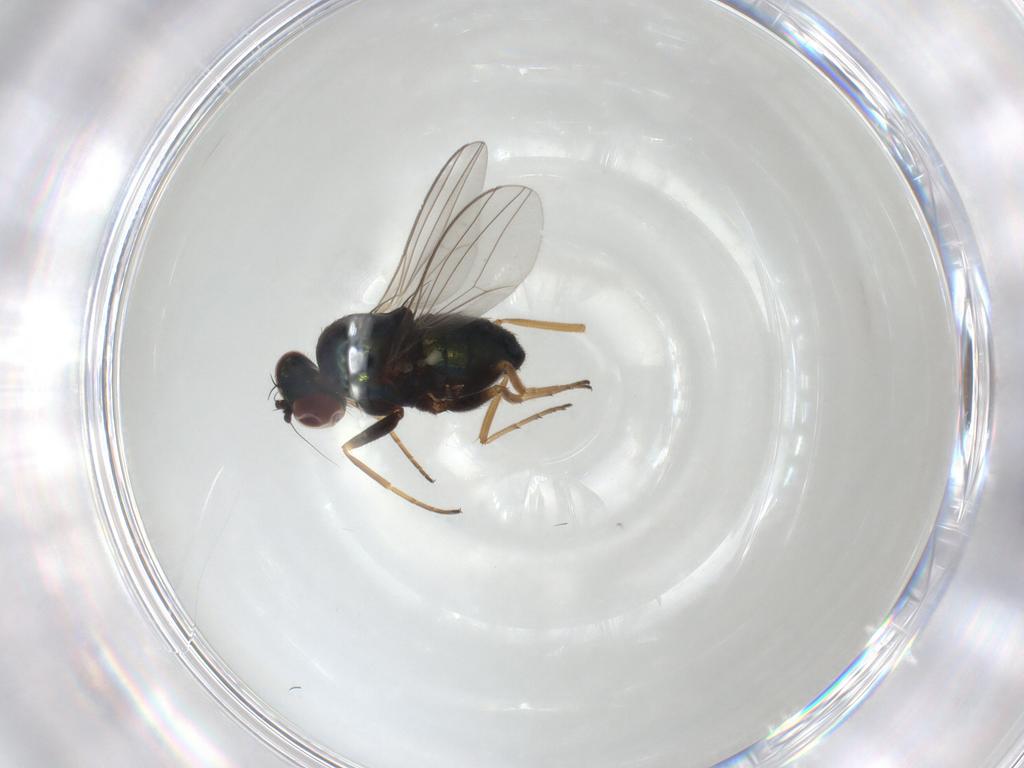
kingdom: Animalia
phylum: Arthropoda
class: Insecta
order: Diptera
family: Dolichopodidae
